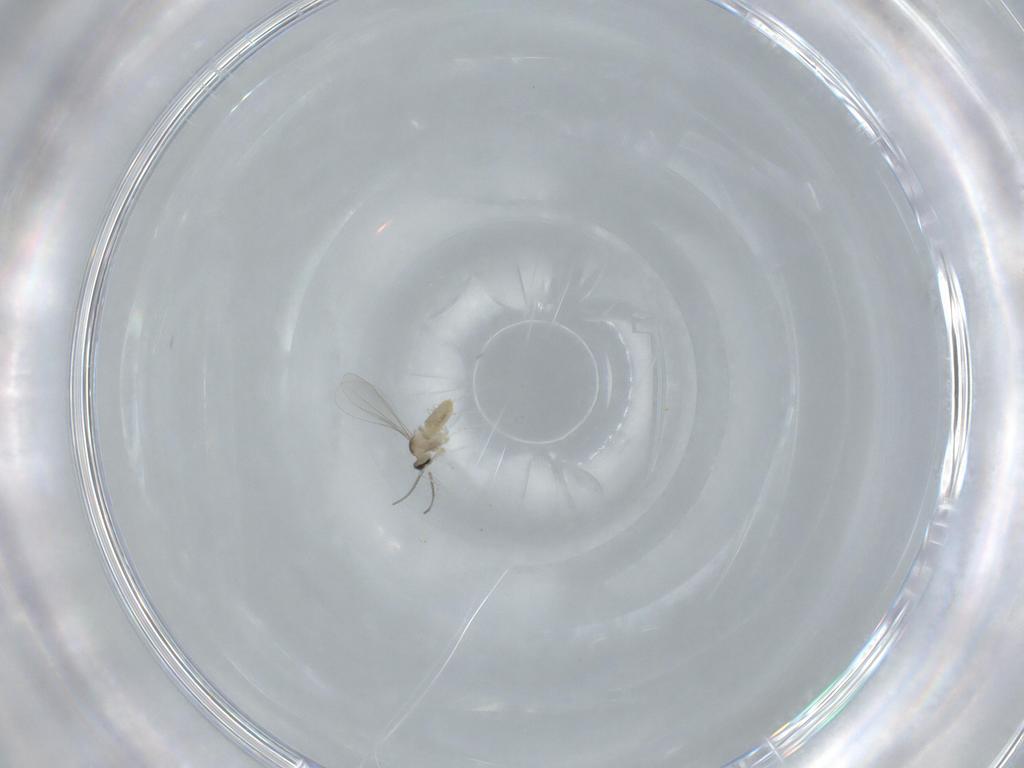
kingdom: Animalia
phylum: Arthropoda
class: Insecta
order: Diptera
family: Cecidomyiidae
